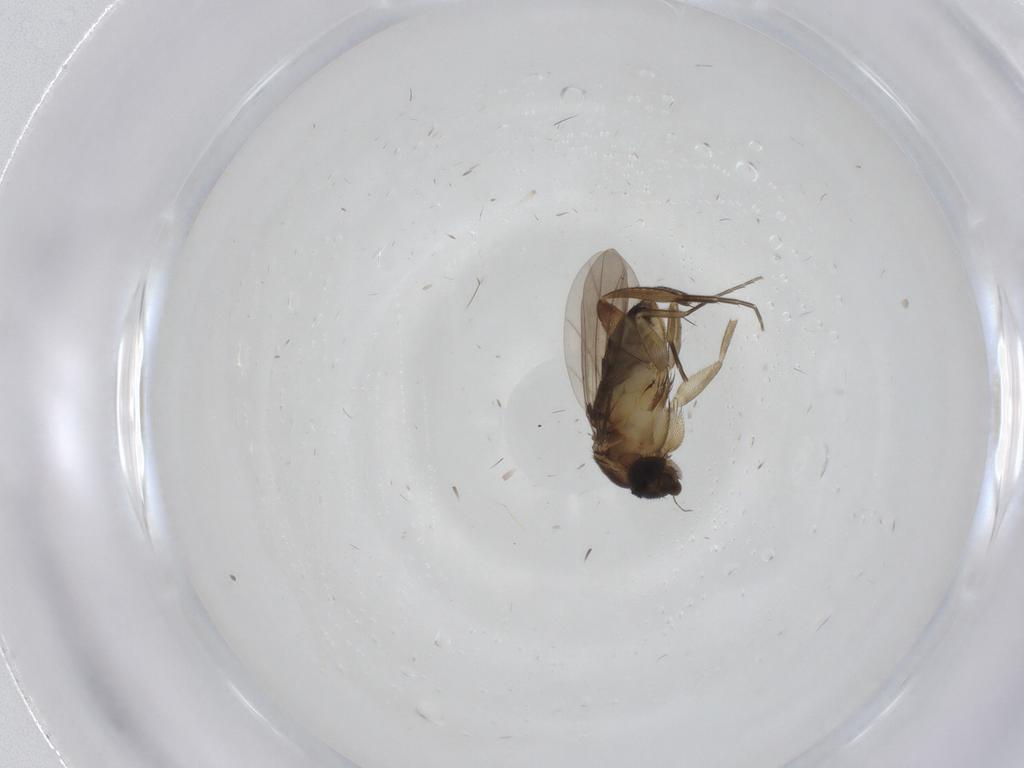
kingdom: Animalia
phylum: Arthropoda
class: Insecta
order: Diptera
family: Phoridae
